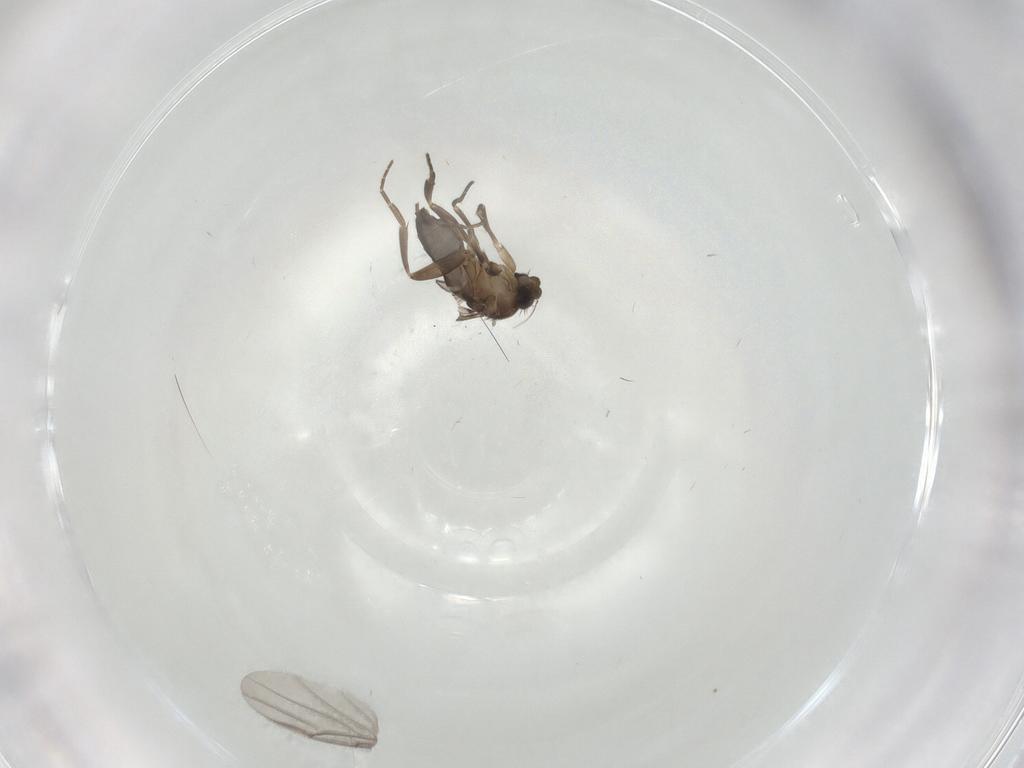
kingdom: Animalia
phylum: Arthropoda
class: Insecta
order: Diptera
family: Phoridae
